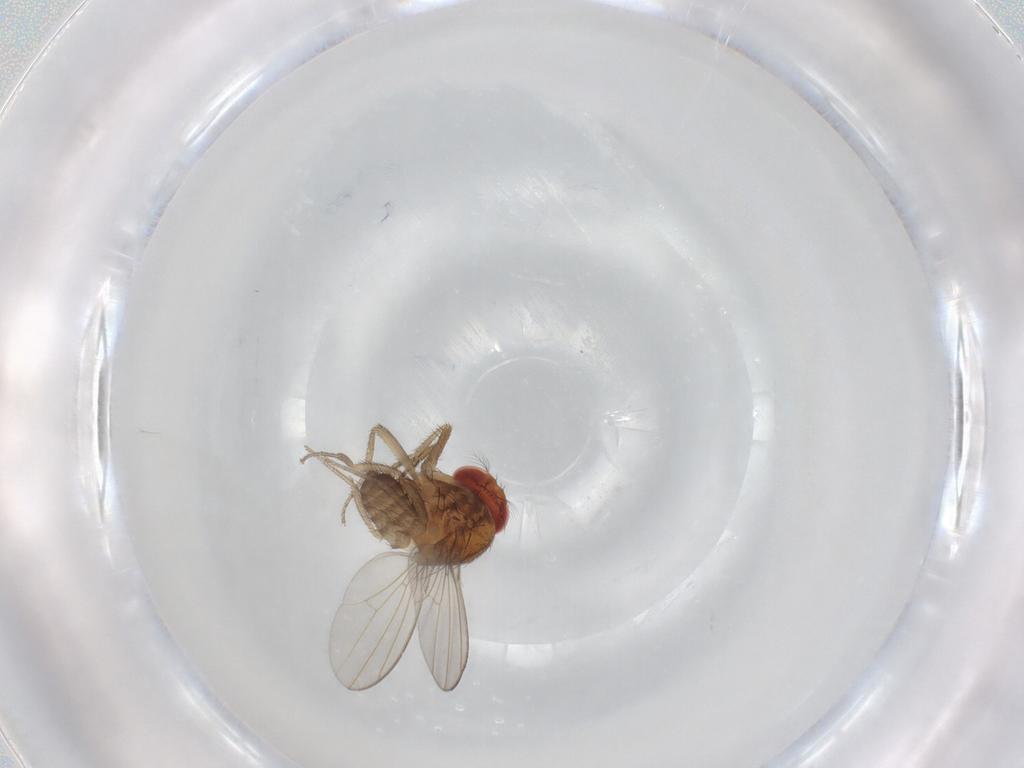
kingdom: Animalia
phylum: Arthropoda
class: Insecta
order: Diptera
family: Drosophilidae
